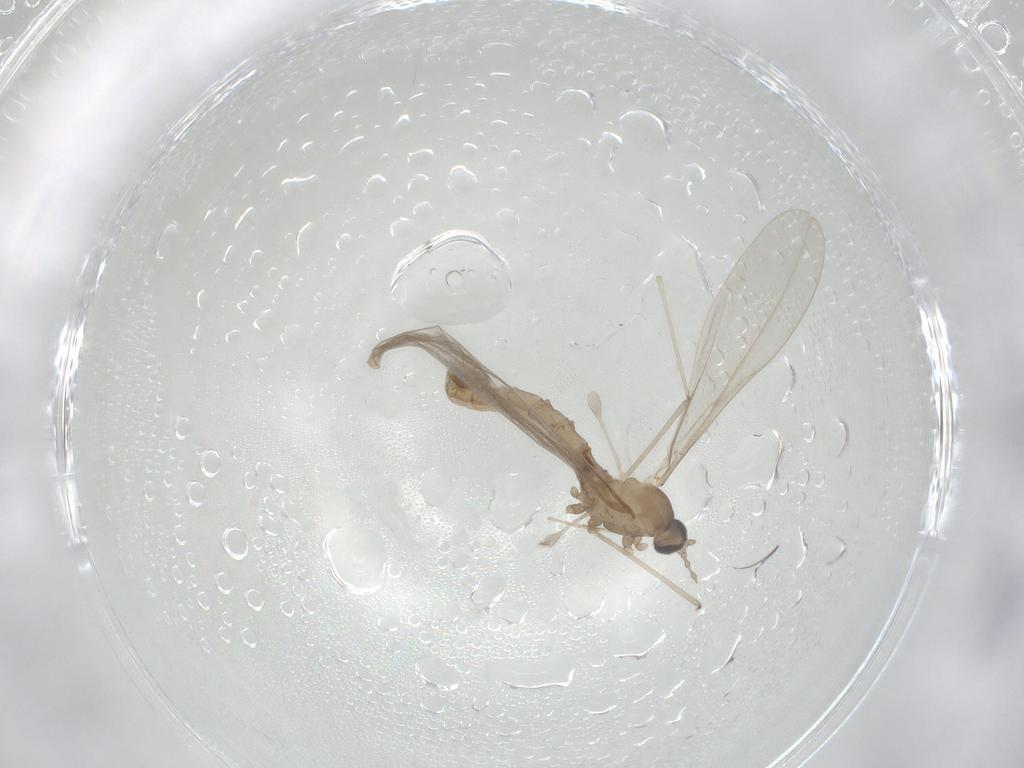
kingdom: Animalia
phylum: Arthropoda
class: Insecta
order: Diptera
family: Cecidomyiidae
